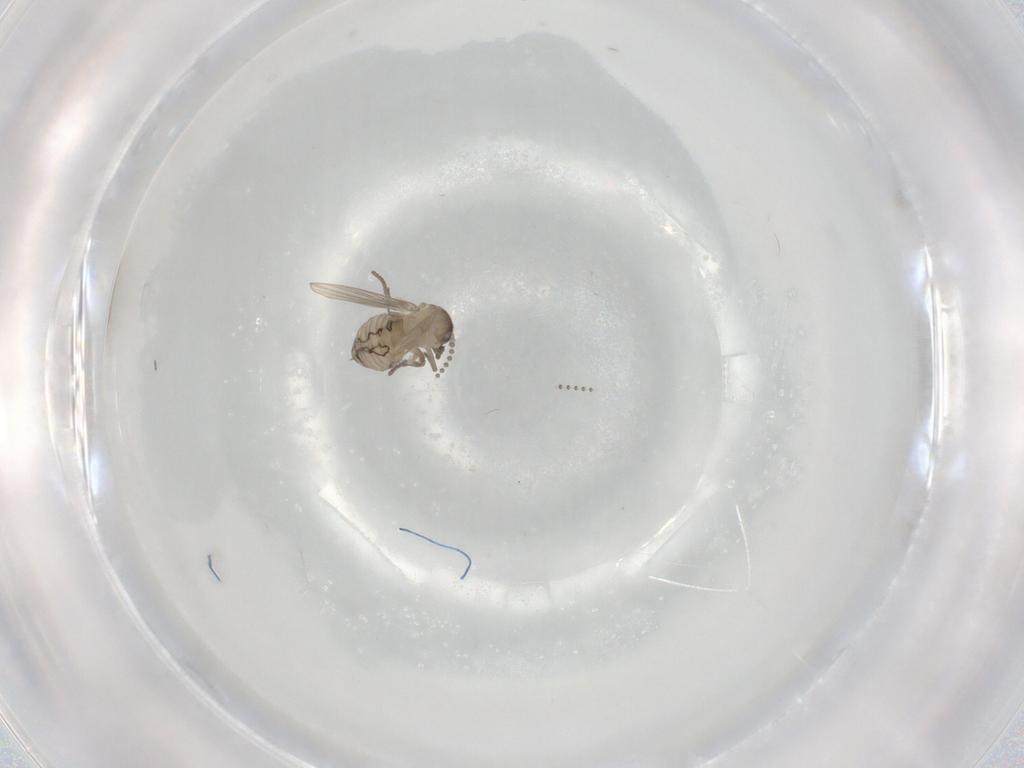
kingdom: Animalia
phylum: Arthropoda
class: Insecta
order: Diptera
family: Psychodidae
